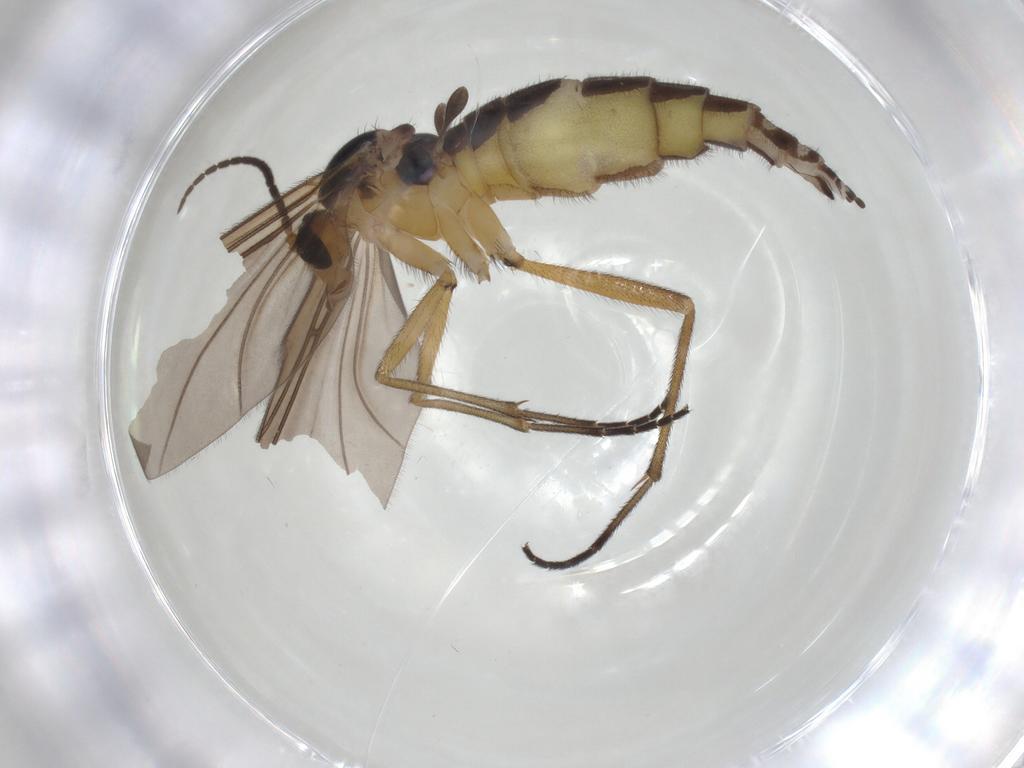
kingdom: Animalia
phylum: Arthropoda
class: Insecta
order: Diptera
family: Sciaridae
